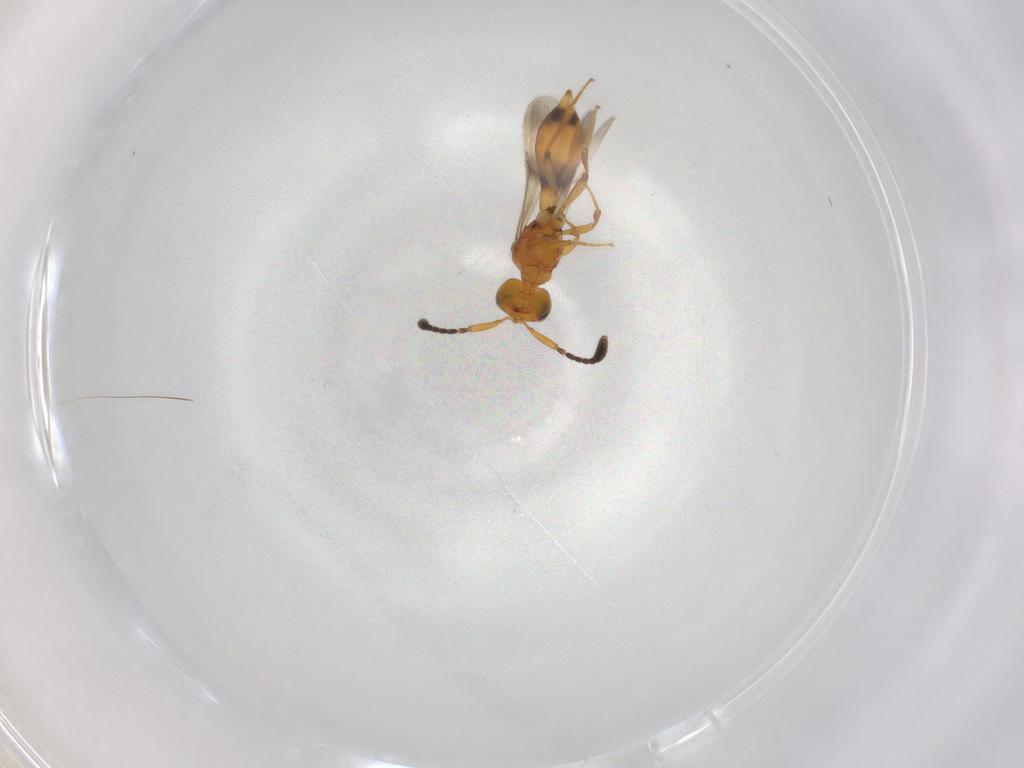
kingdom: Animalia
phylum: Arthropoda
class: Insecta
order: Hymenoptera
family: Scelionidae
